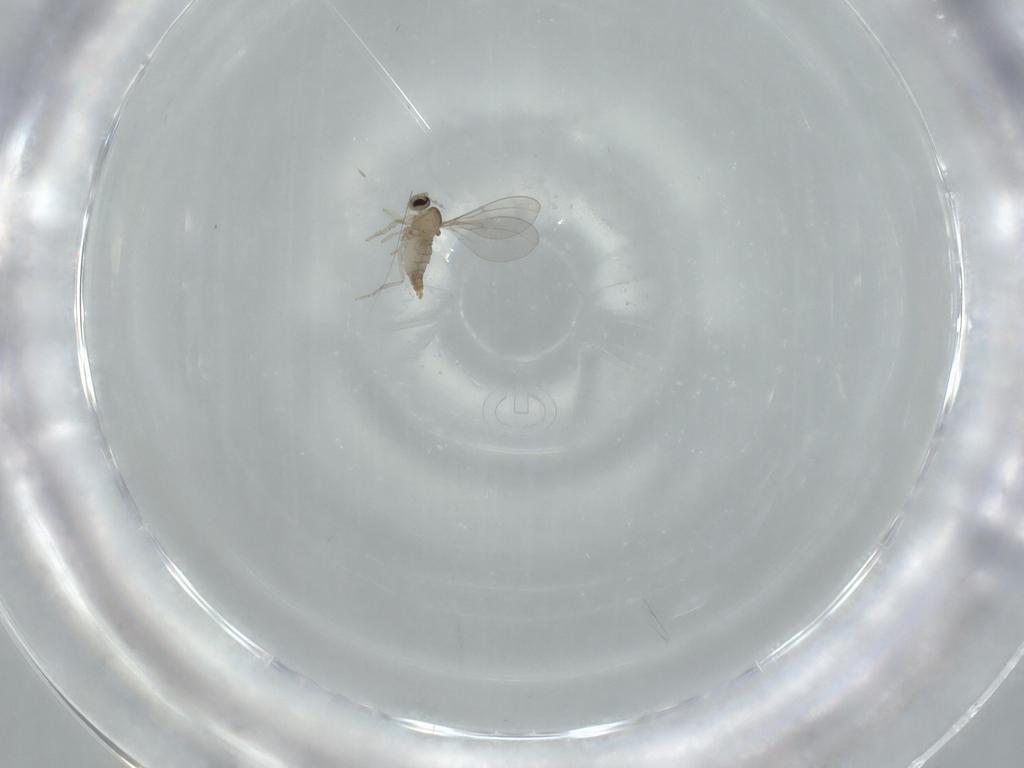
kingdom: Animalia
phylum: Arthropoda
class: Insecta
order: Diptera
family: Drosophilidae
